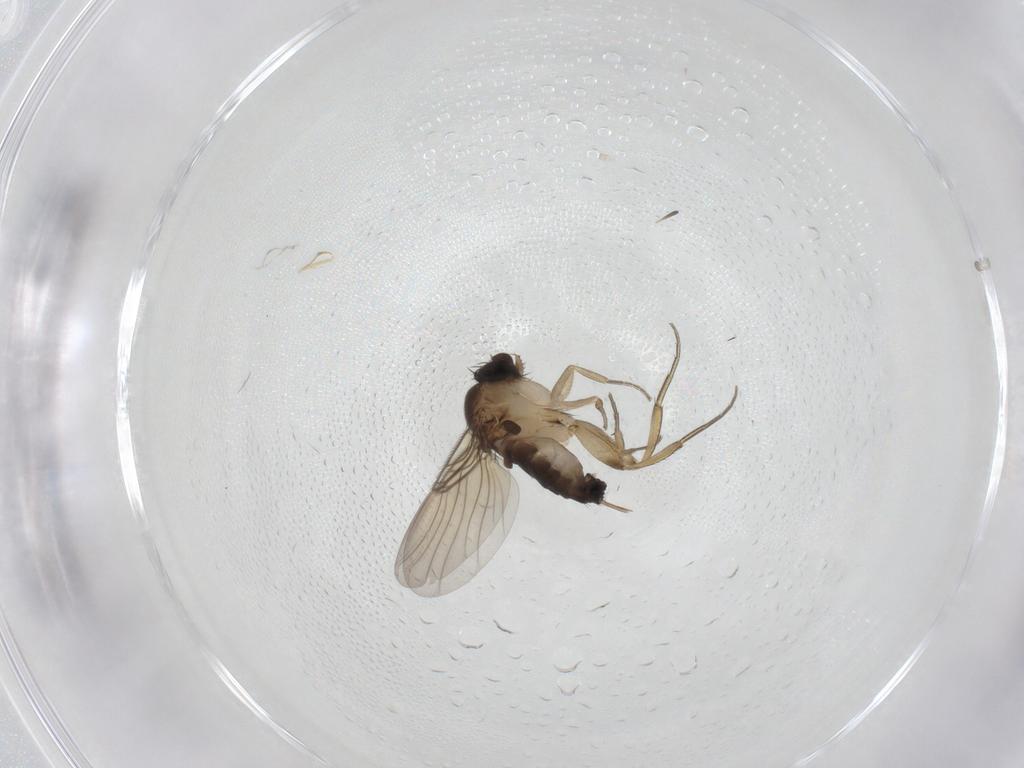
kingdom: Animalia
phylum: Arthropoda
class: Insecta
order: Diptera
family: Phoridae
